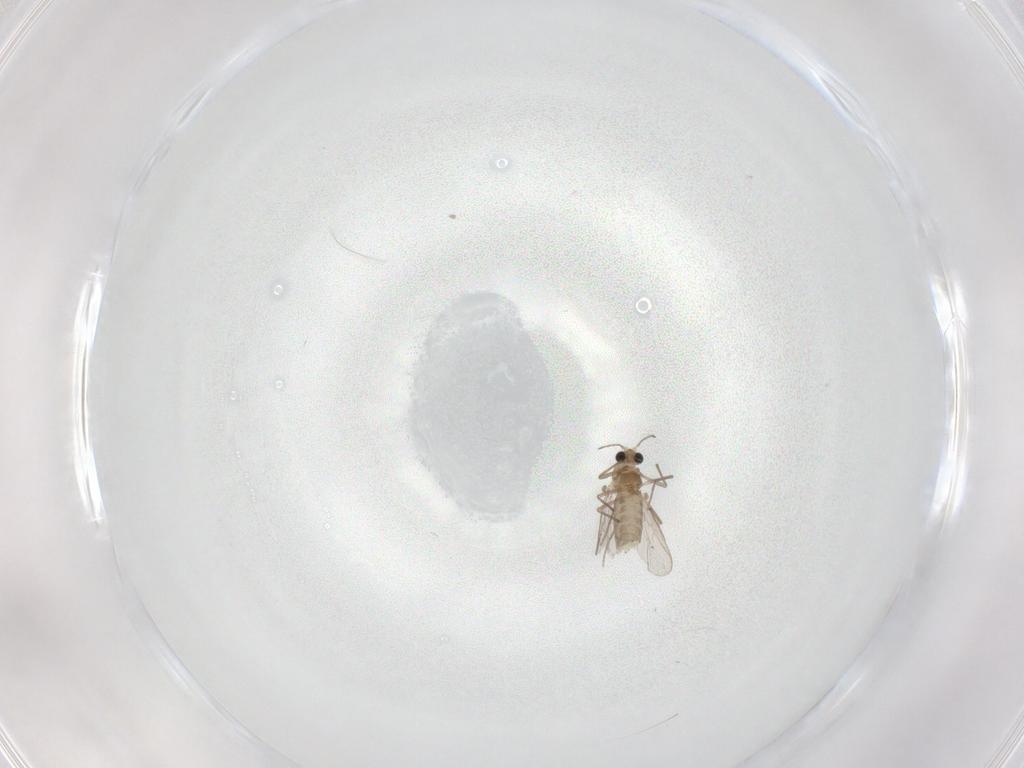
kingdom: Animalia
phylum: Arthropoda
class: Insecta
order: Diptera
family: Chironomidae
